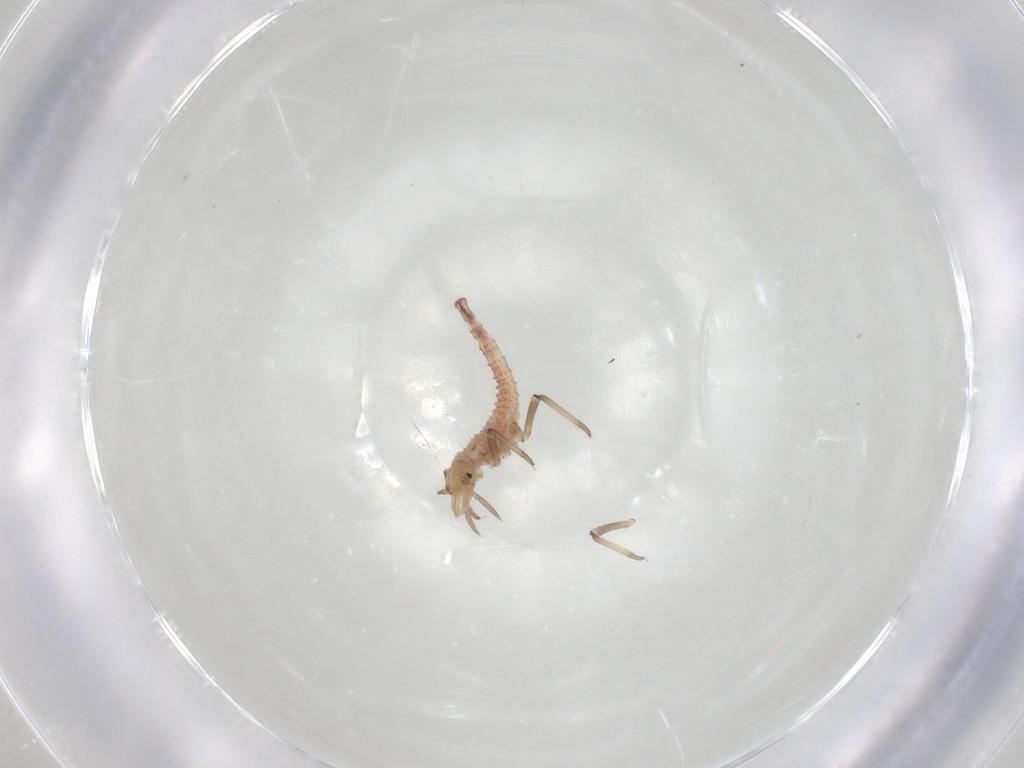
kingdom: Animalia
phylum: Arthropoda
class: Insecta
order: Neuroptera
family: Hemerobiidae
